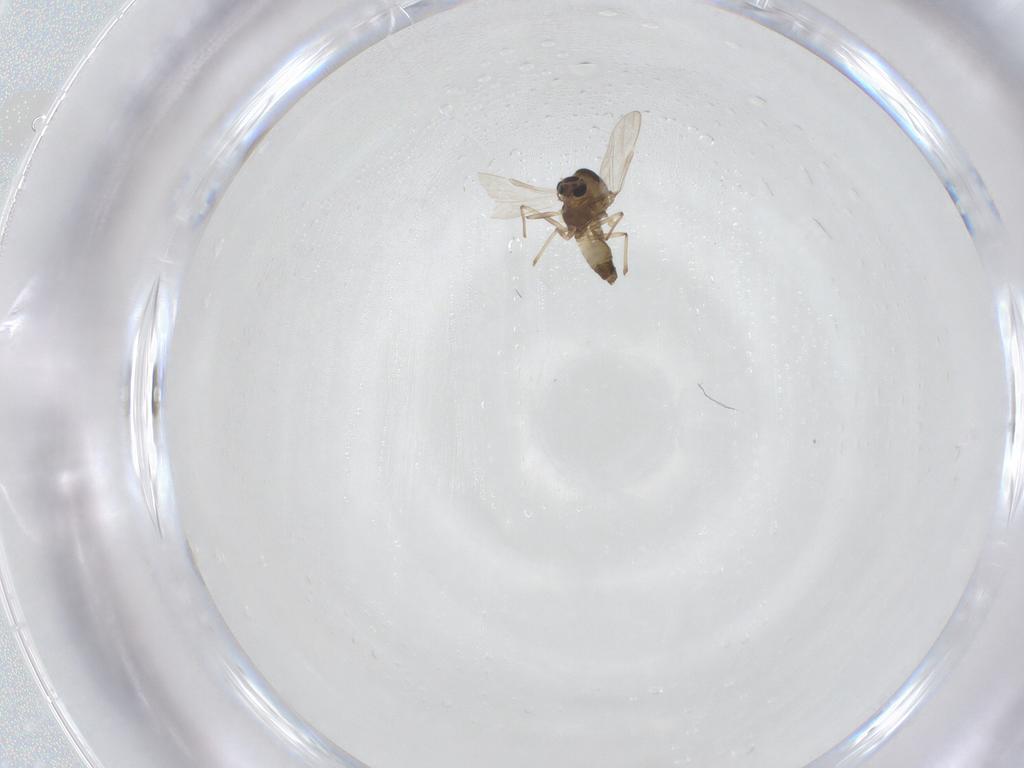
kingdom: Animalia
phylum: Arthropoda
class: Insecta
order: Diptera
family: Chironomidae
